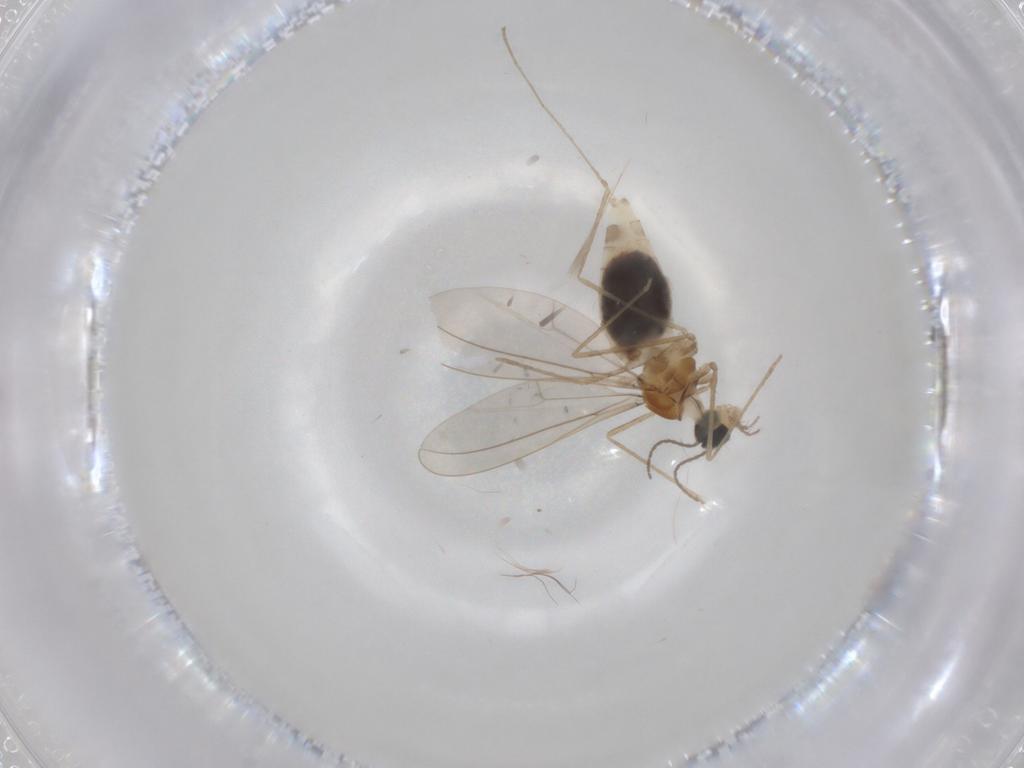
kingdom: Animalia
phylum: Arthropoda
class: Insecta
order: Diptera
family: Cecidomyiidae
